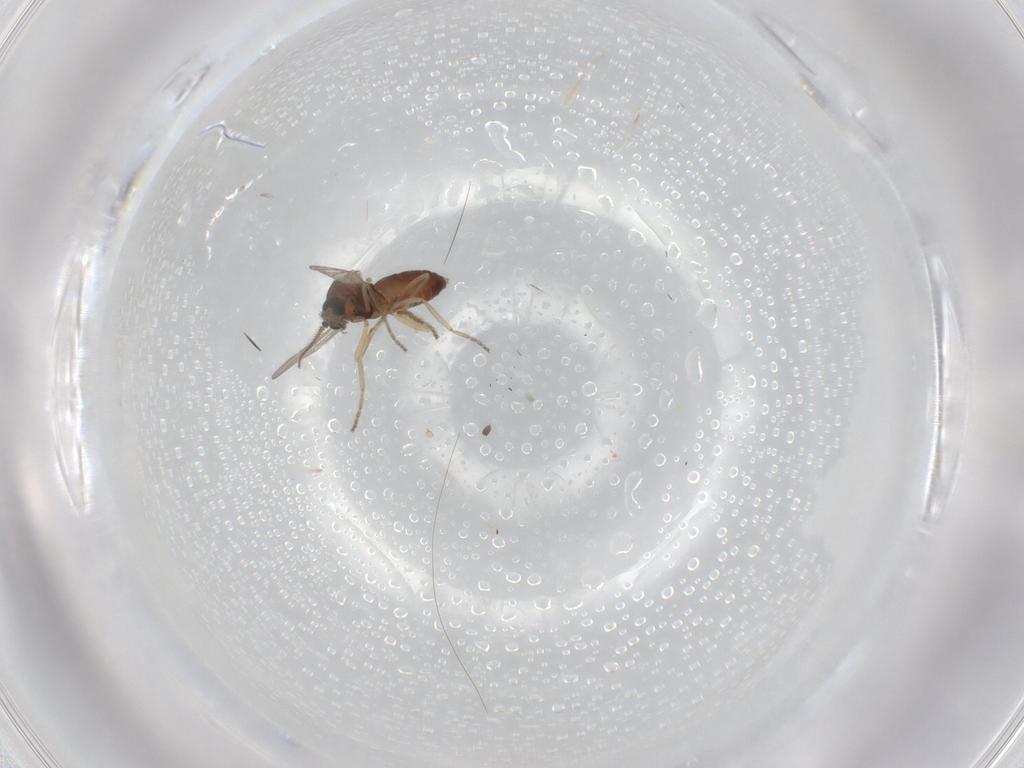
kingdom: Animalia
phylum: Arthropoda
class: Insecta
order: Diptera
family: Ceratopogonidae
